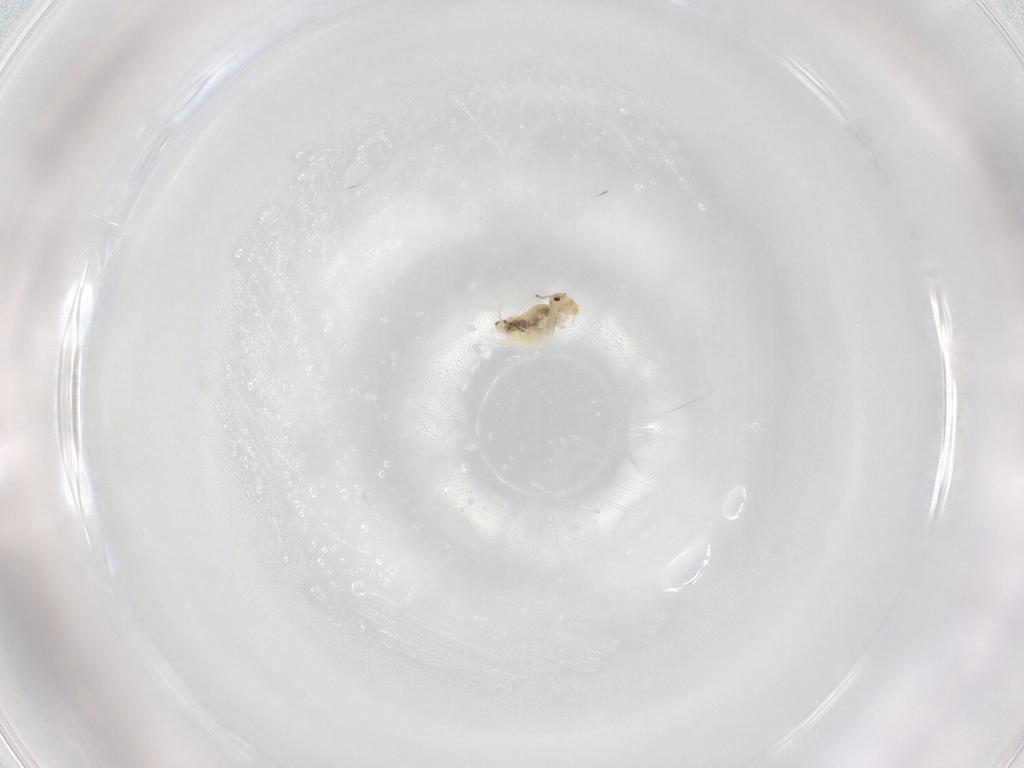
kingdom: Animalia
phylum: Arthropoda
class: Collembola
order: Symphypleona
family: Bourletiellidae
